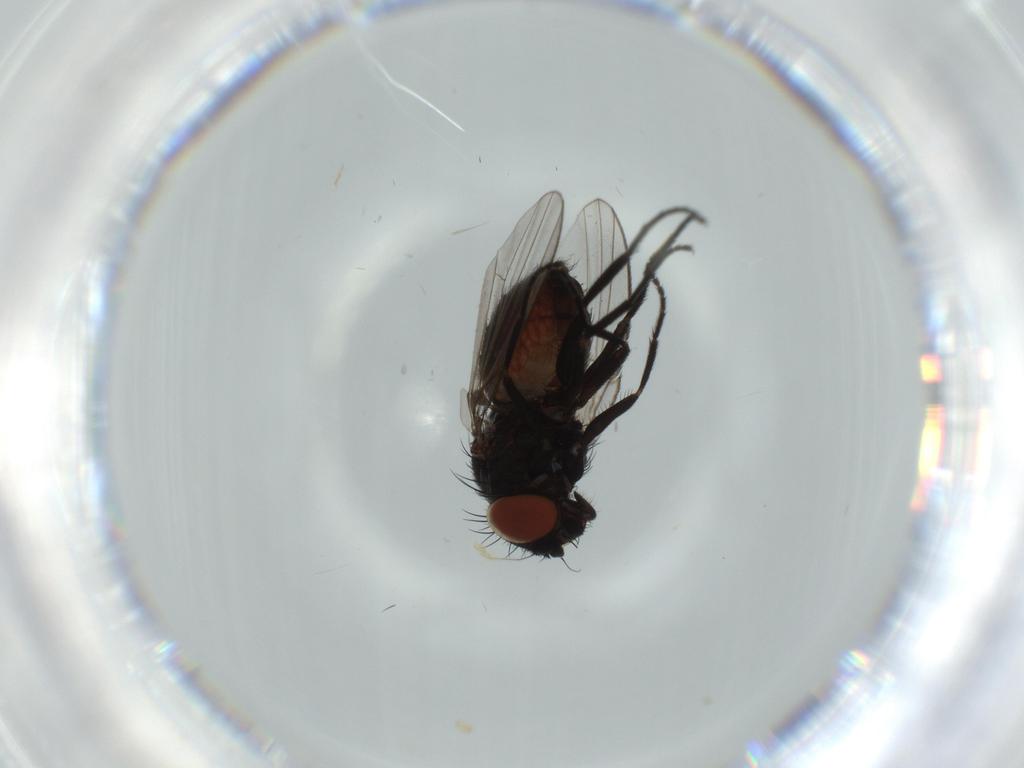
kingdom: Animalia
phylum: Arthropoda
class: Insecta
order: Diptera
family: Milichiidae
